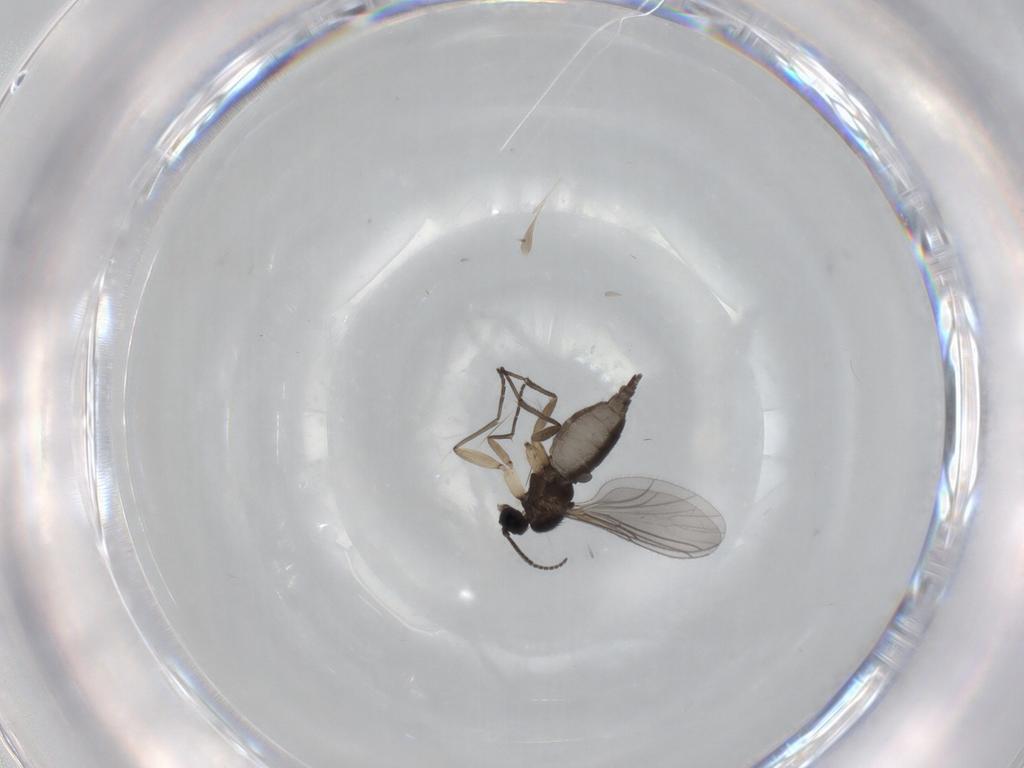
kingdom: Animalia
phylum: Arthropoda
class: Insecta
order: Diptera
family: Sciaridae
